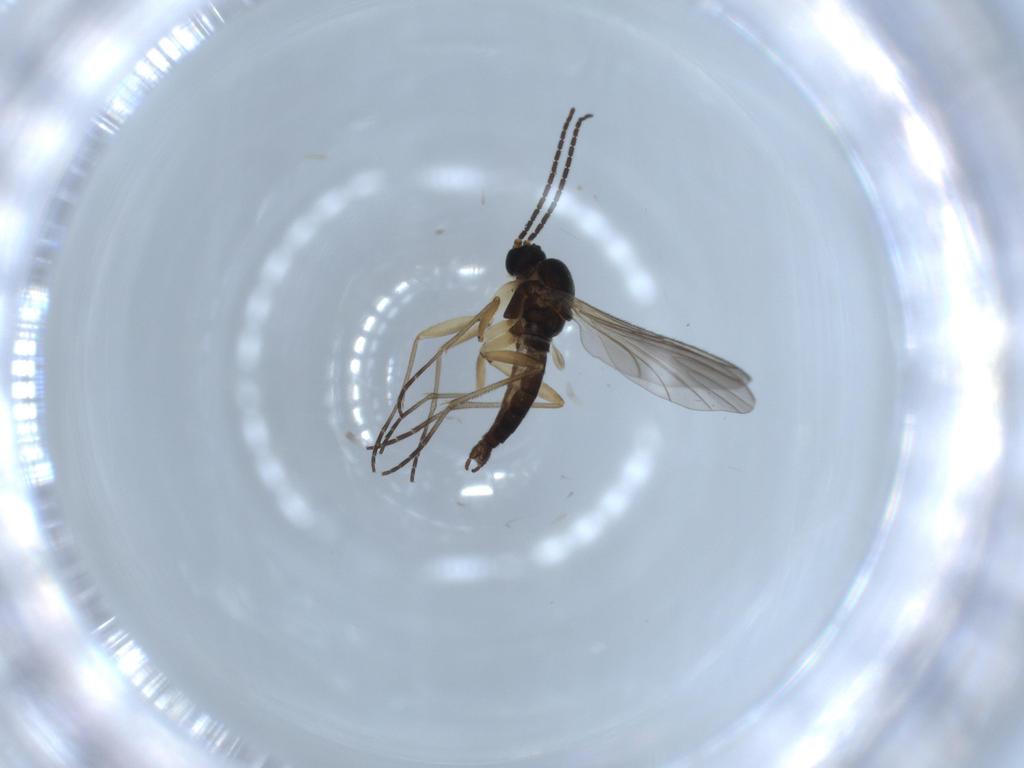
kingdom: Animalia
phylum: Arthropoda
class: Insecta
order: Diptera
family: Sciaridae
